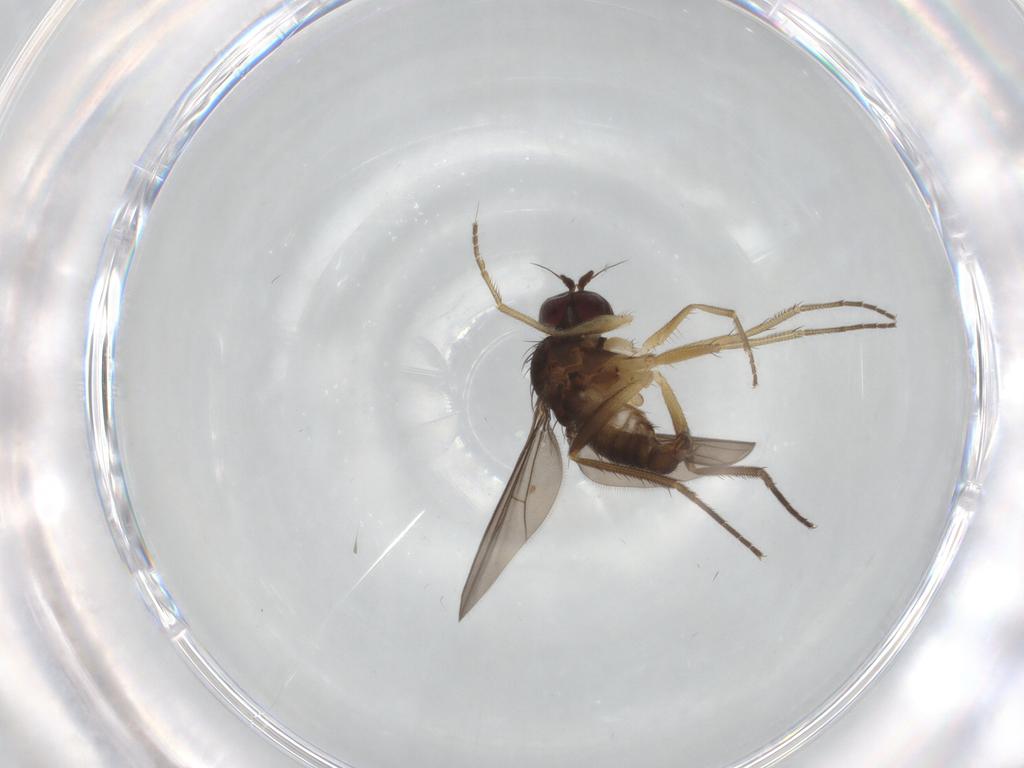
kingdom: Animalia
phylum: Arthropoda
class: Insecta
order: Diptera
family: Dolichopodidae
